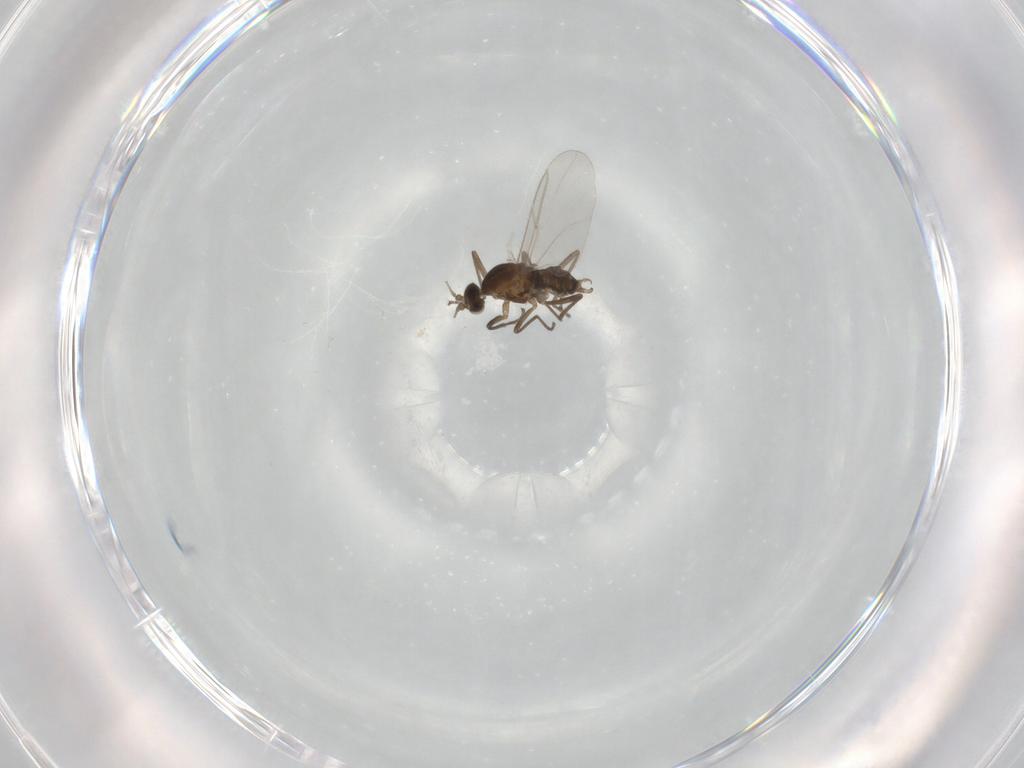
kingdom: Animalia
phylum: Arthropoda
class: Insecta
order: Diptera
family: Cecidomyiidae
